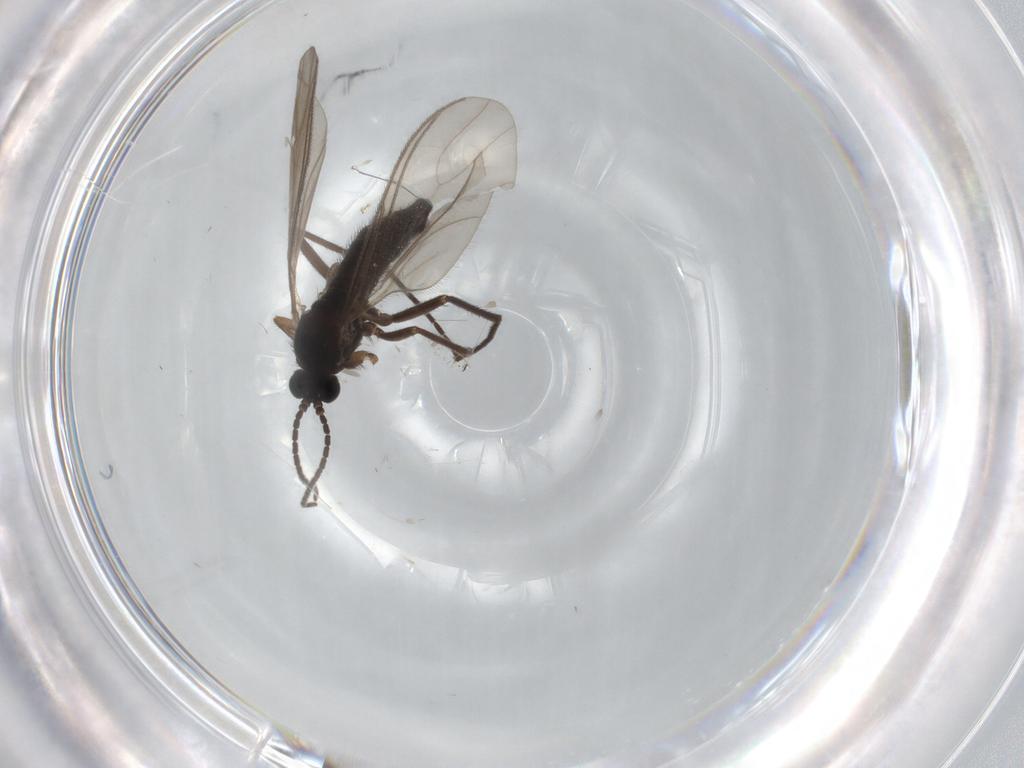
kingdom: Animalia
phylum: Arthropoda
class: Insecta
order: Diptera
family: Sciaridae
